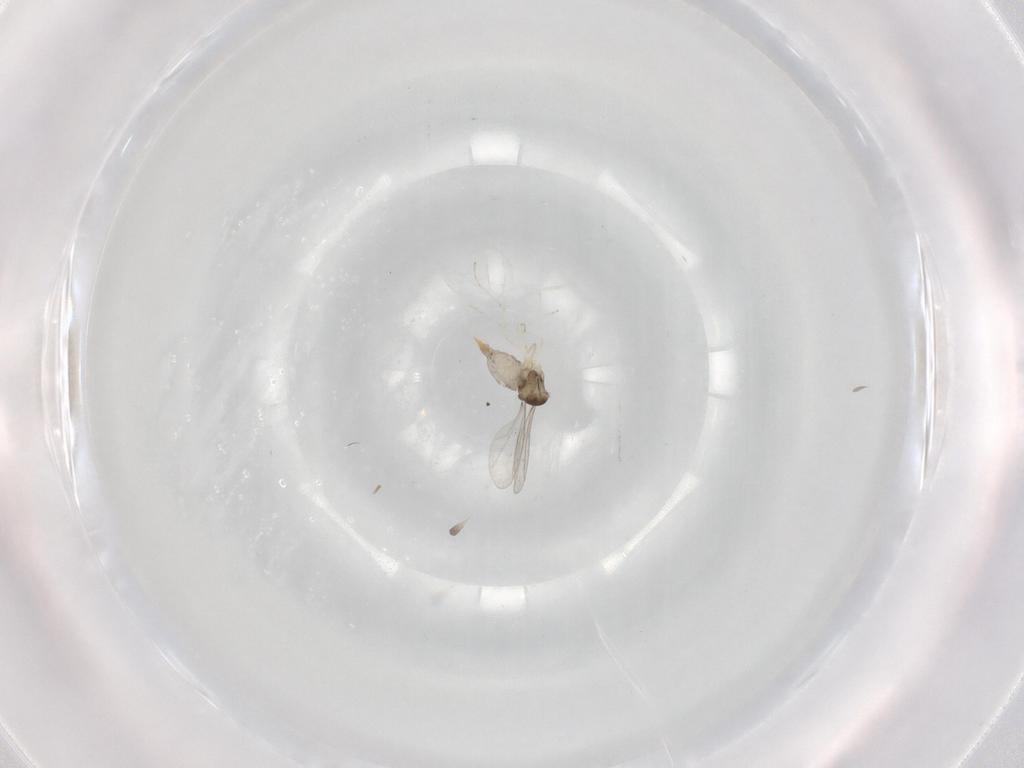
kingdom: Animalia
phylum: Arthropoda
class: Insecta
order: Diptera
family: Cecidomyiidae
